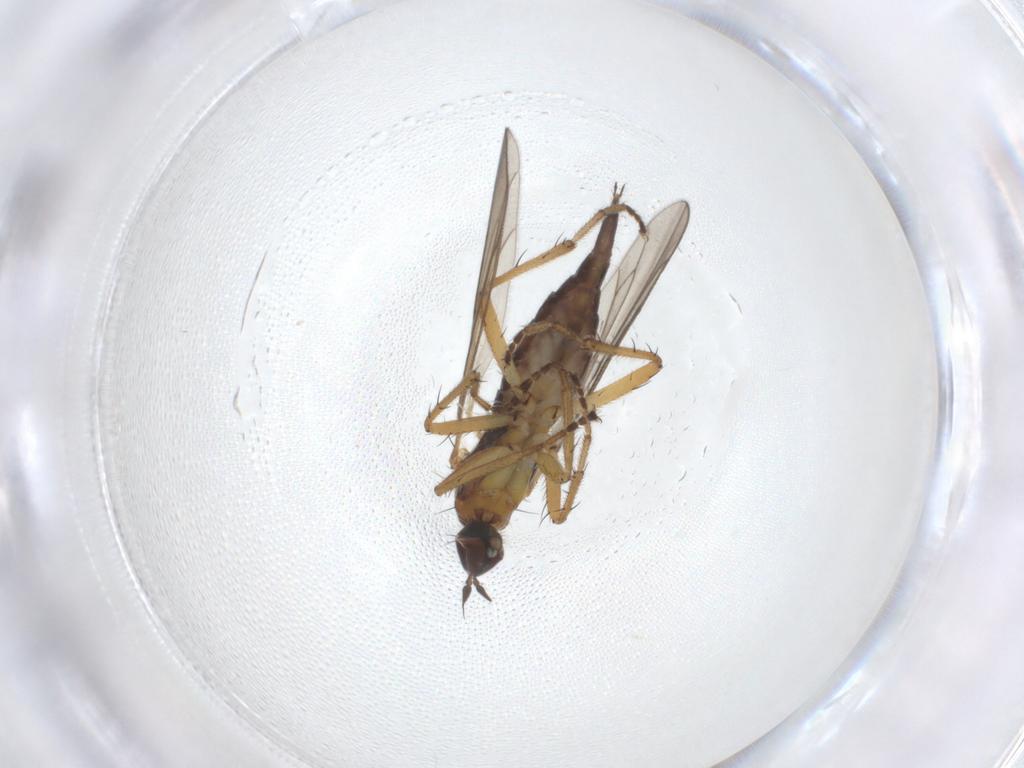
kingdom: Animalia
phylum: Arthropoda
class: Insecta
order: Diptera
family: Hybotidae
